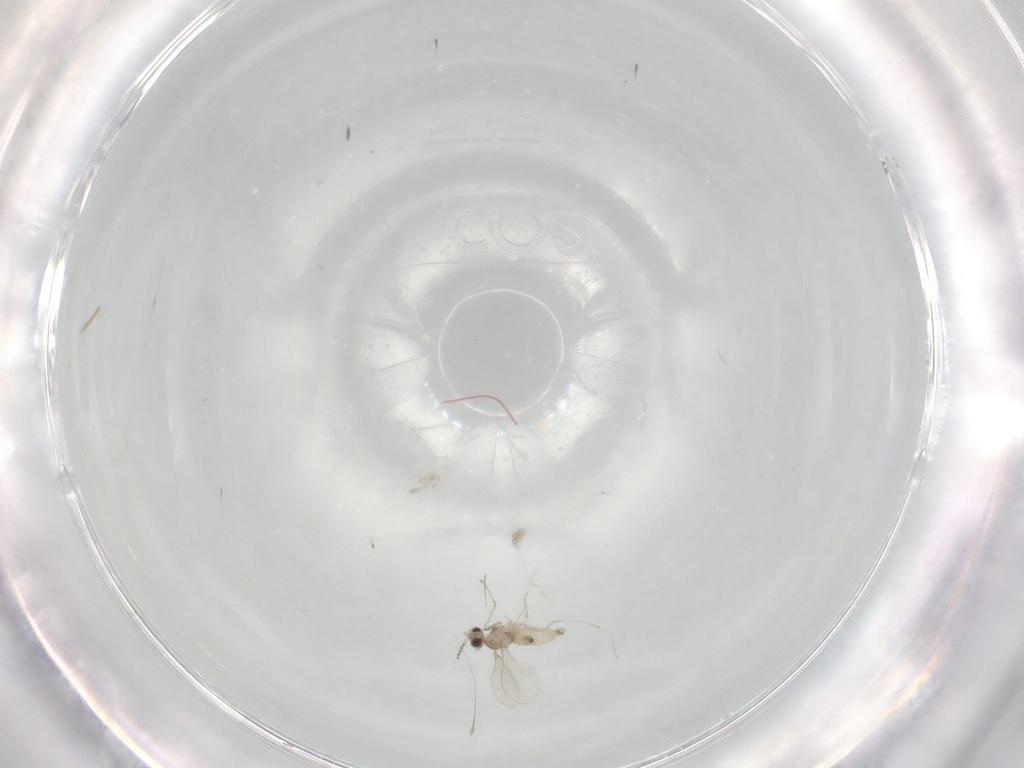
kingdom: Animalia
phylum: Arthropoda
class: Insecta
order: Diptera
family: Cecidomyiidae
